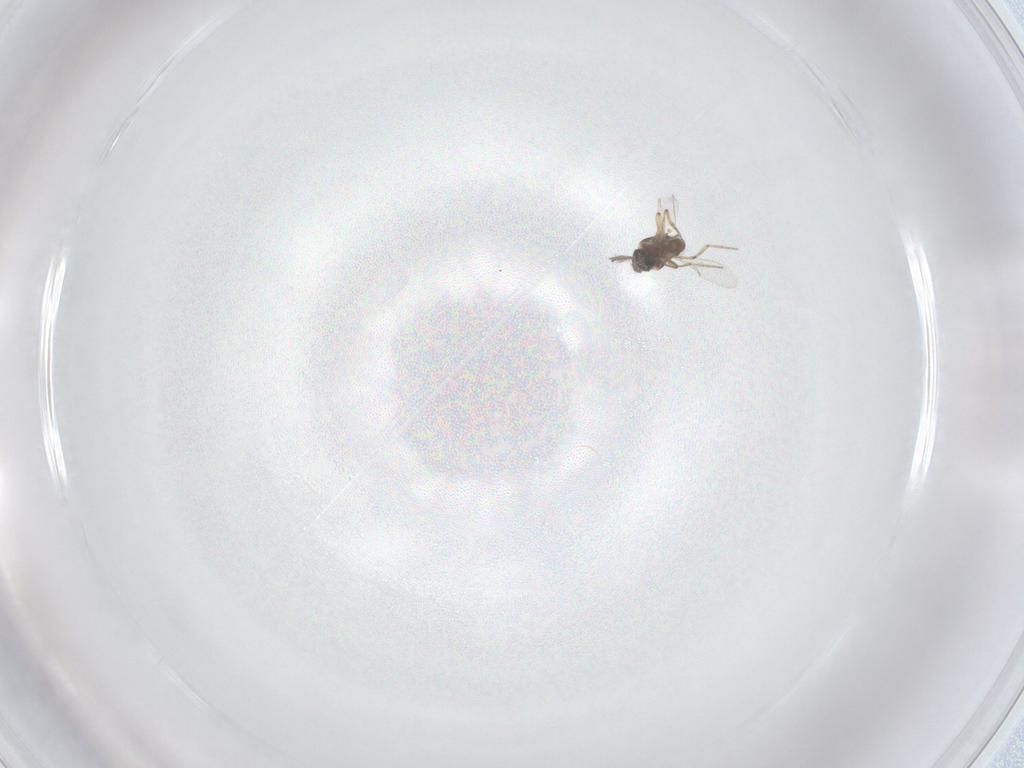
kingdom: Animalia
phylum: Arthropoda
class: Insecta
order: Diptera
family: Ceratopogonidae
